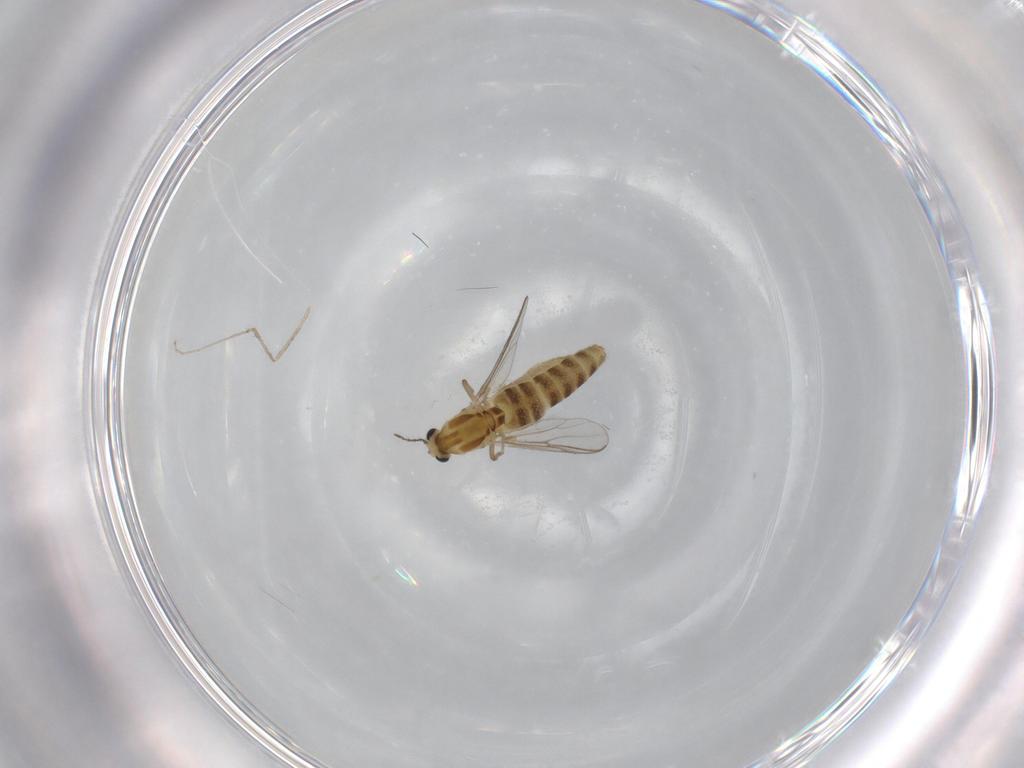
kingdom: Animalia
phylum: Arthropoda
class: Insecta
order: Diptera
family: Chironomidae
